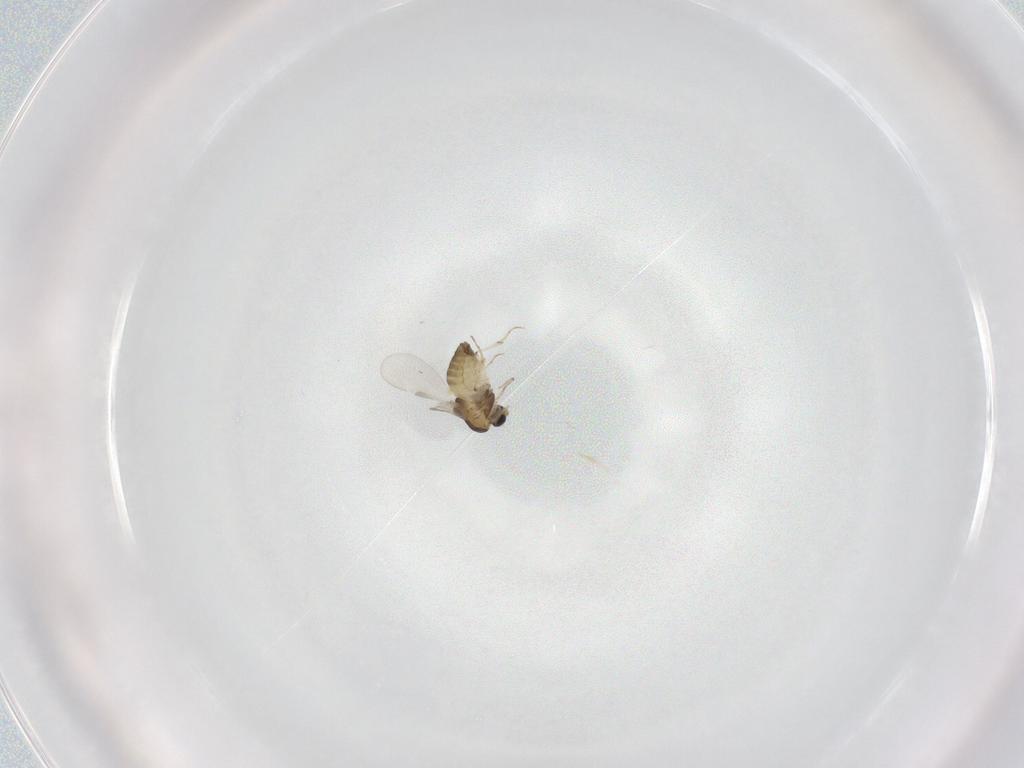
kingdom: Animalia
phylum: Arthropoda
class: Insecta
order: Diptera
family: Chironomidae
